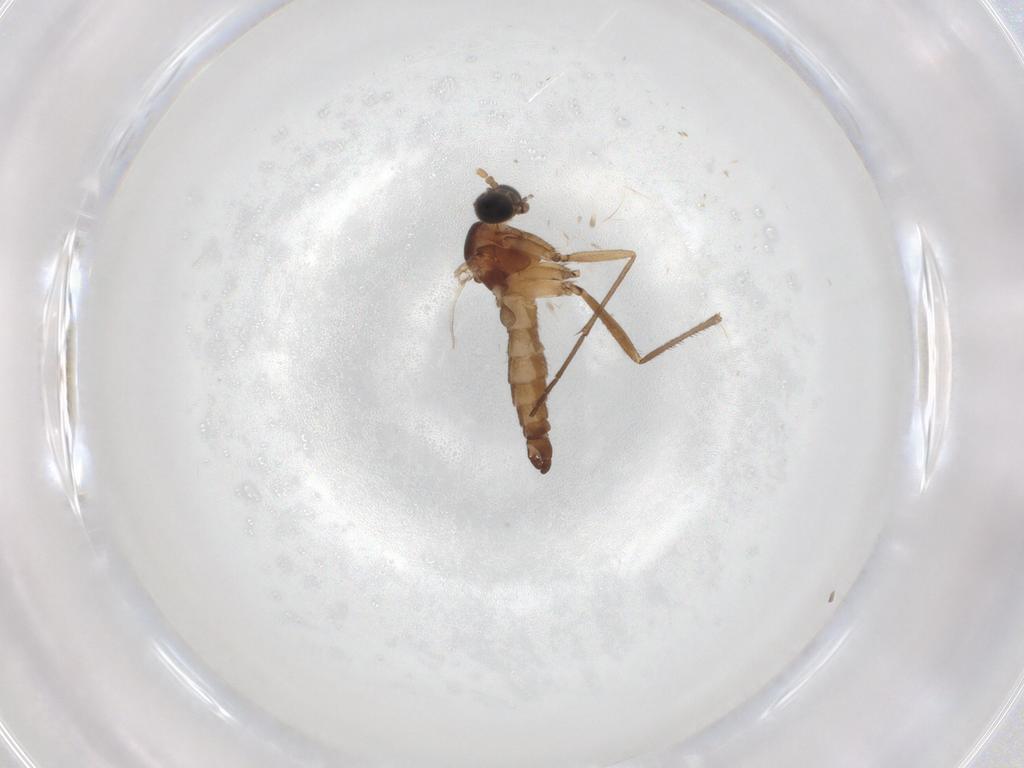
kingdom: Animalia
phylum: Arthropoda
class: Insecta
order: Diptera
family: Sciaridae
